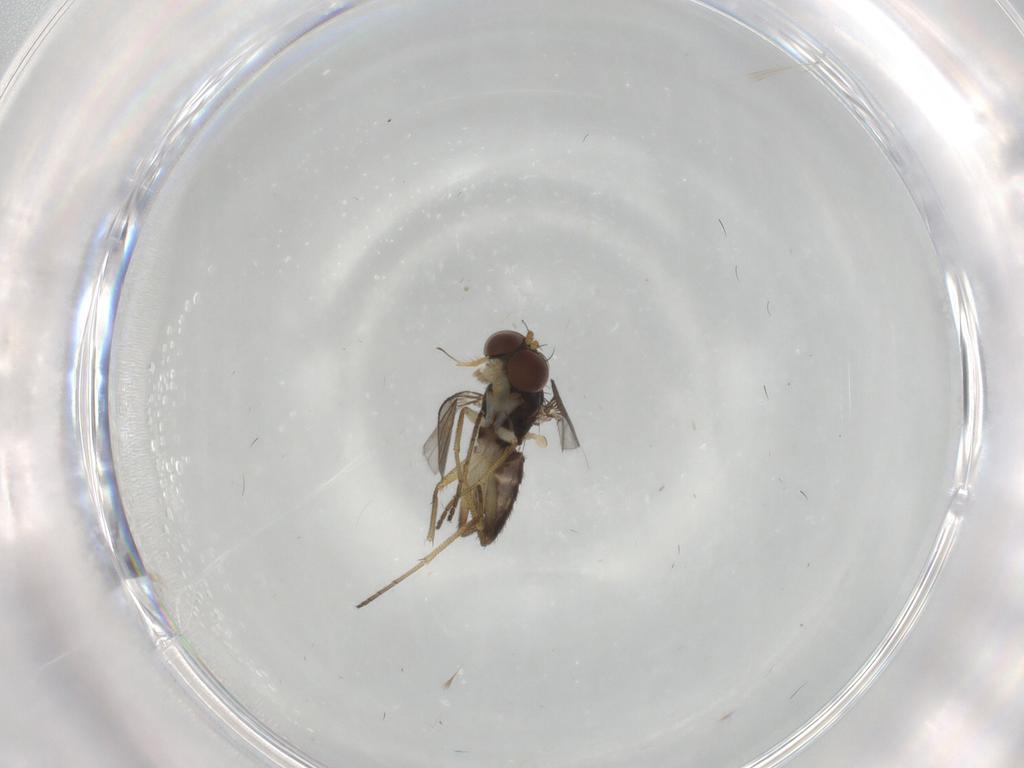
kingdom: Animalia
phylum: Arthropoda
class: Insecta
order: Diptera
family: Dolichopodidae
